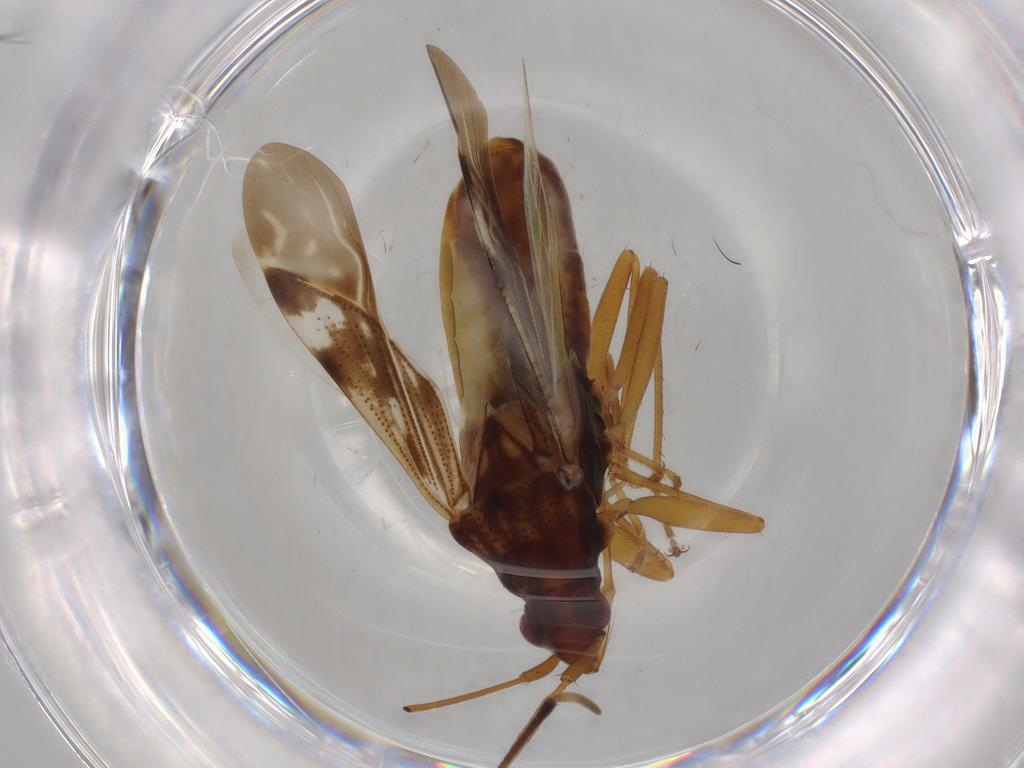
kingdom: Animalia
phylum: Arthropoda
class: Insecta
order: Hemiptera
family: Rhyparochromidae
